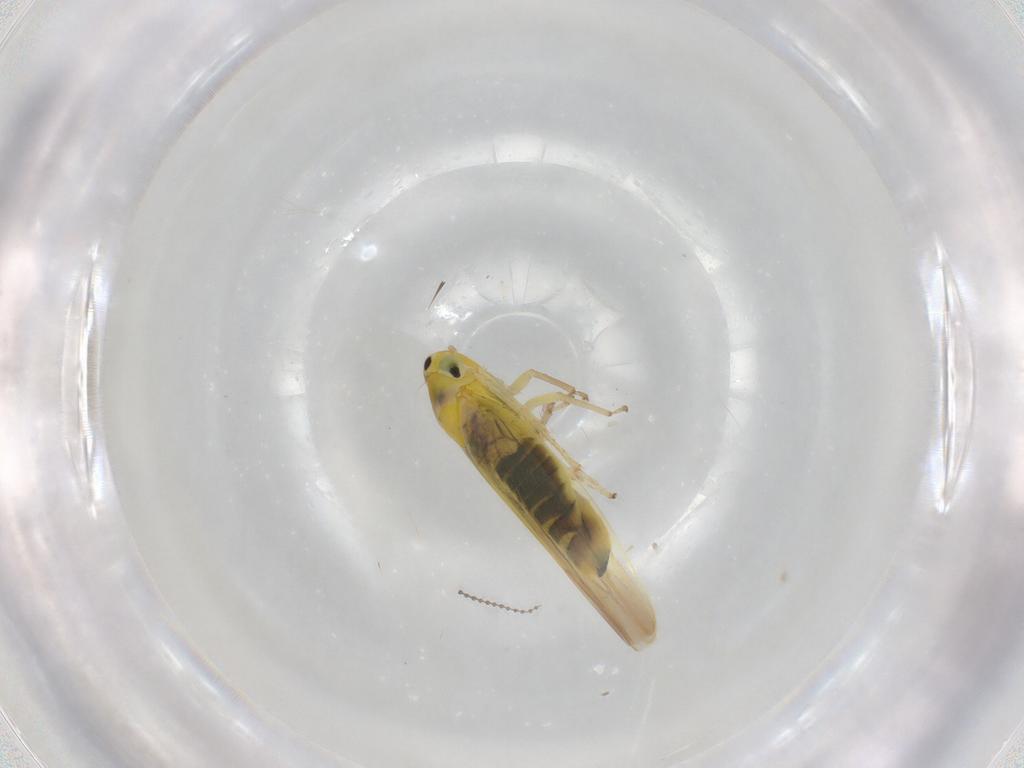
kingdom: Animalia
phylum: Arthropoda
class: Insecta
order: Hemiptera
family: Cicadellidae
